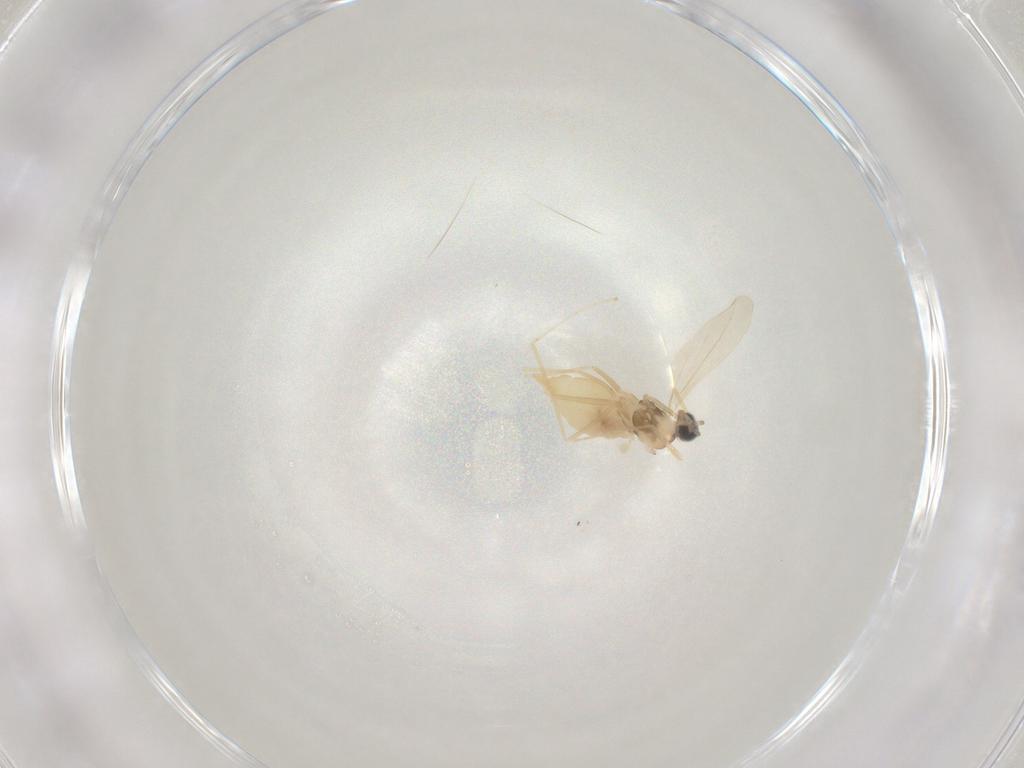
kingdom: Animalia
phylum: Arthropoda
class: Insecta
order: Diptera
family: Cecidomyiidae
